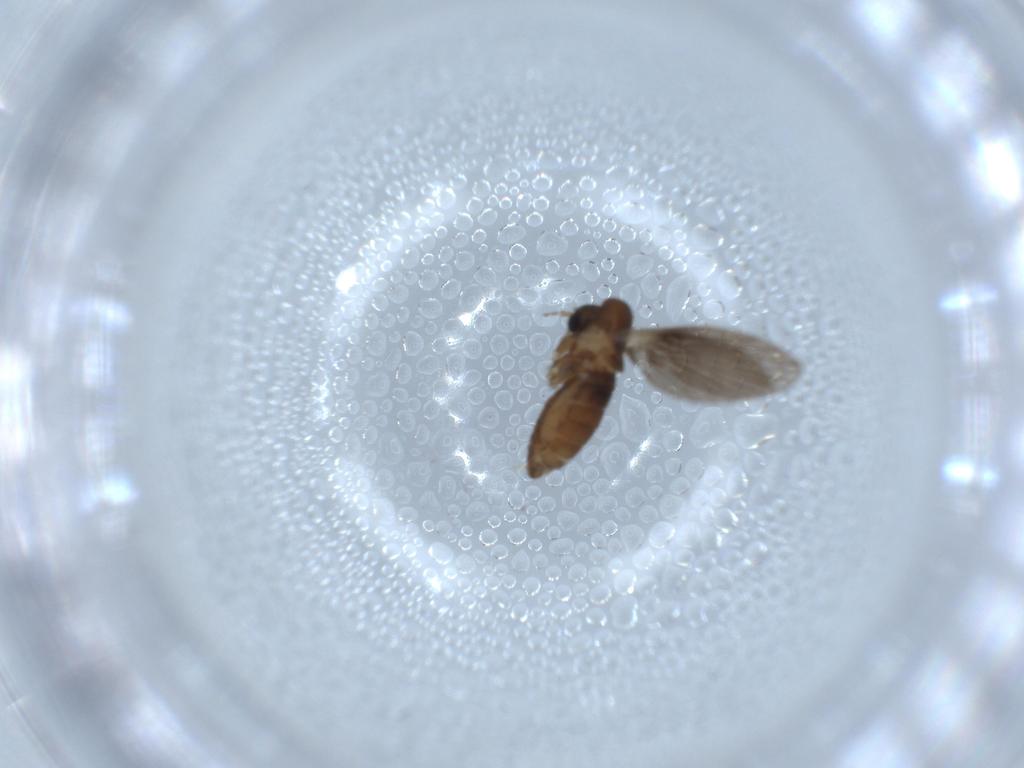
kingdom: Animalia
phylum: Arthropoda
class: Insecta
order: Diptera
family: Psychodidae
